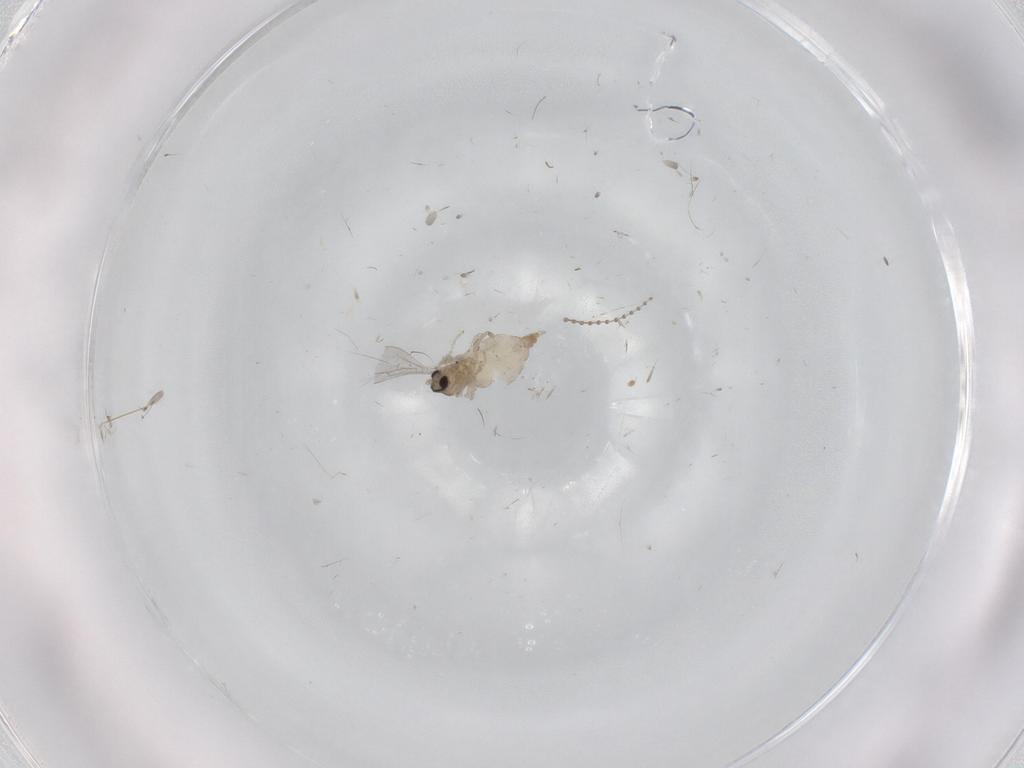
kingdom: Animalia
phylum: Arthropoda
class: Insecta
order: Diptera
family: Cecidomyiidae
